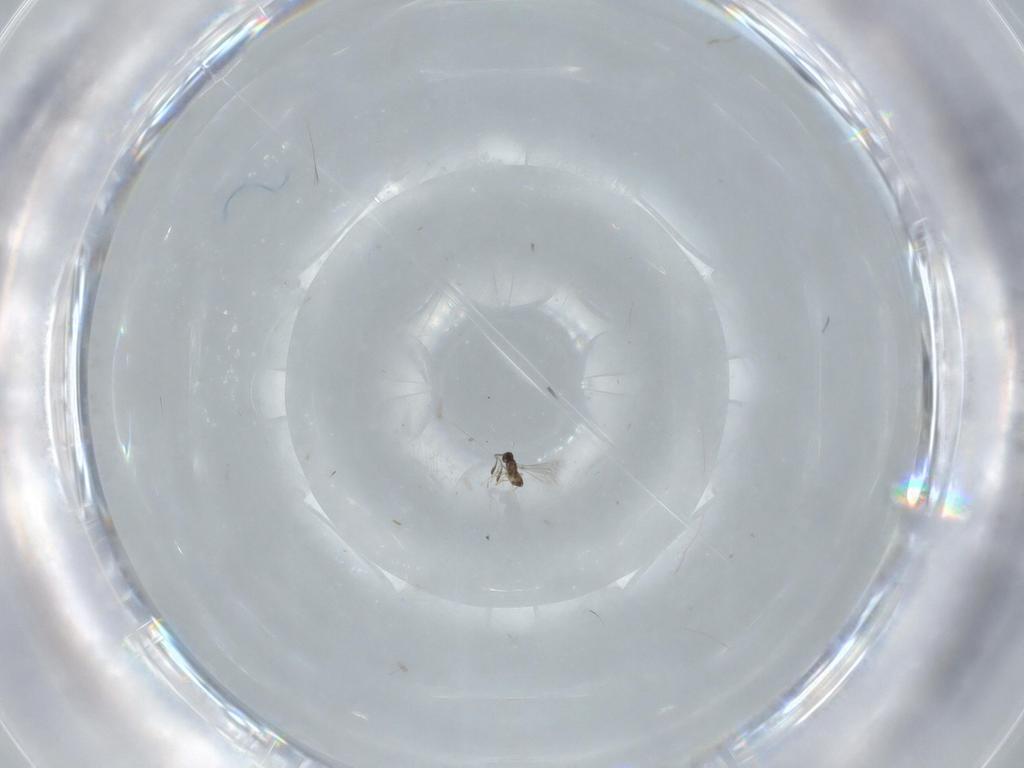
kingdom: Animalia
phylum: Arthropoda
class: Insecta
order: Hymenoptera
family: Mymaridae
